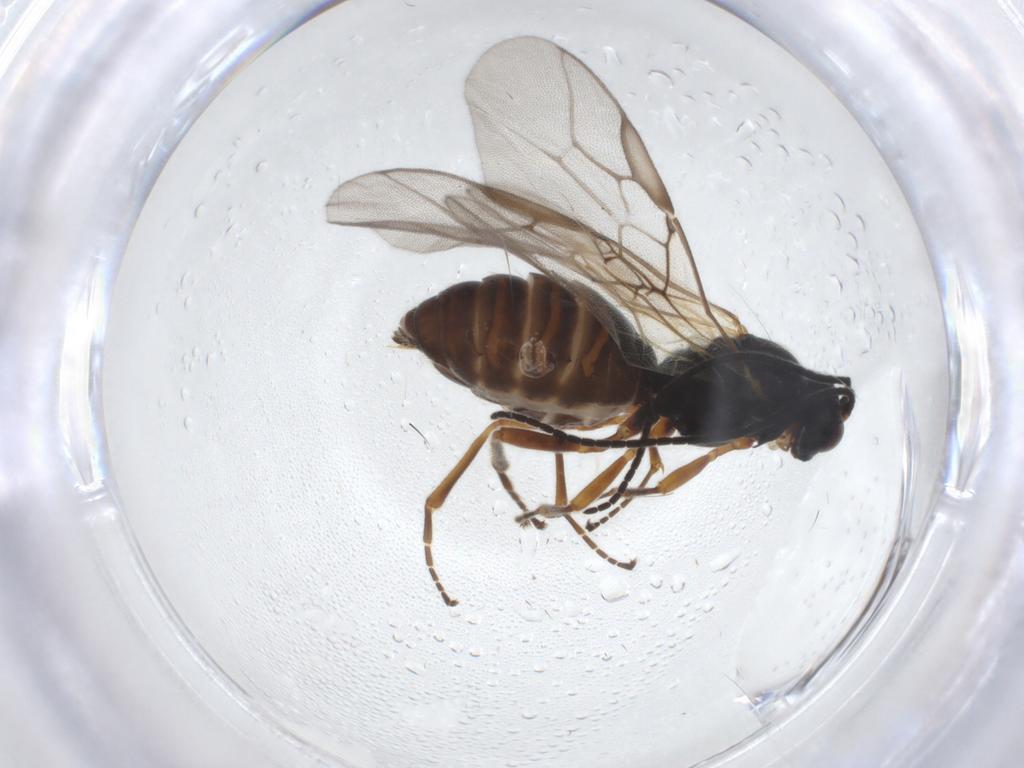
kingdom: Animalia
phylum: Arthropoda
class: Insecta
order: Hymenoptera
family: Braconidae
